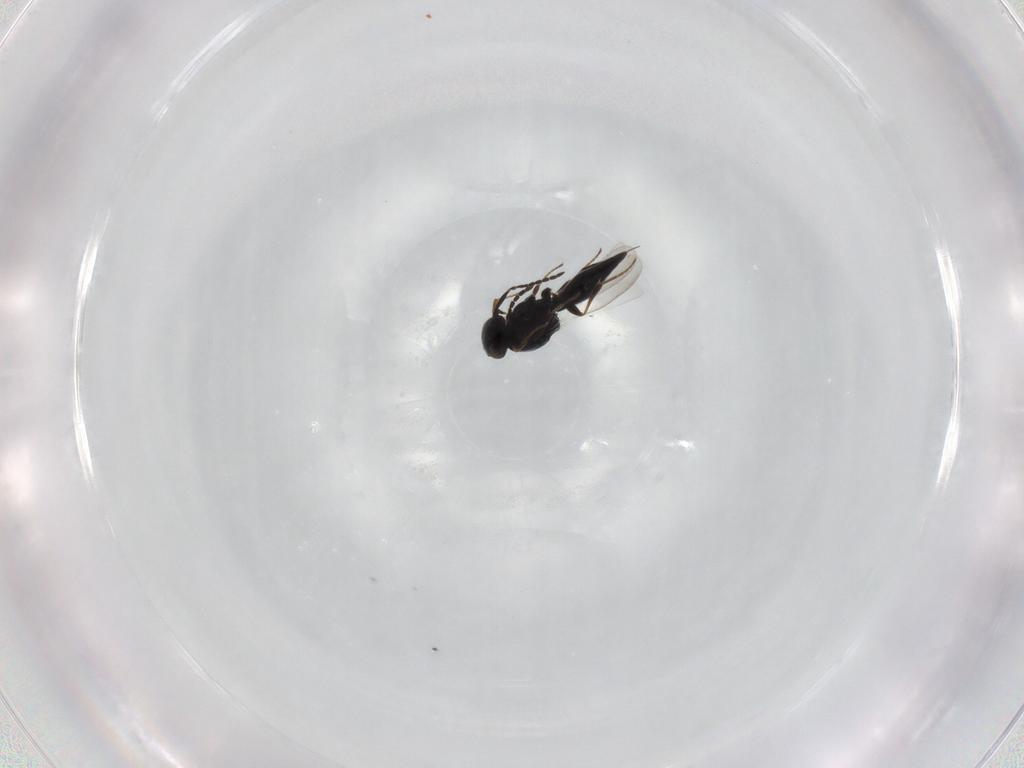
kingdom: Animalia
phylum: Arthropoda
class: Insecta
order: Hymenoptera
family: Platygastridae
